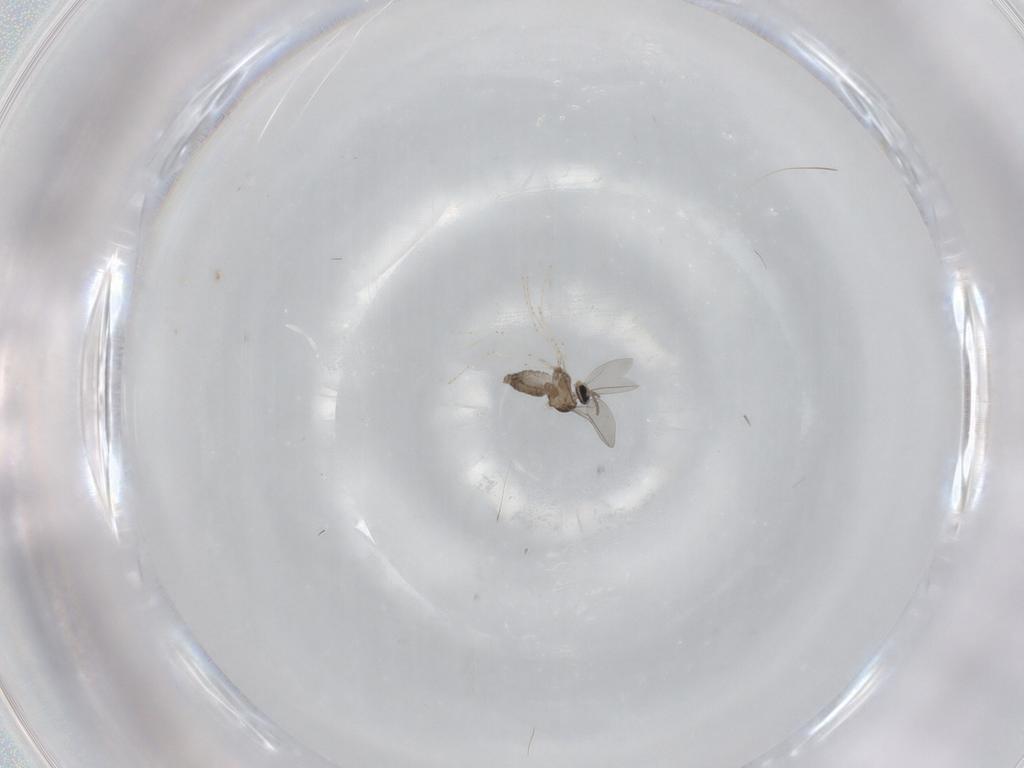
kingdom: Animalia
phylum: Arthropoda
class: Insecta
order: Diptera
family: Cecidomyiidae
